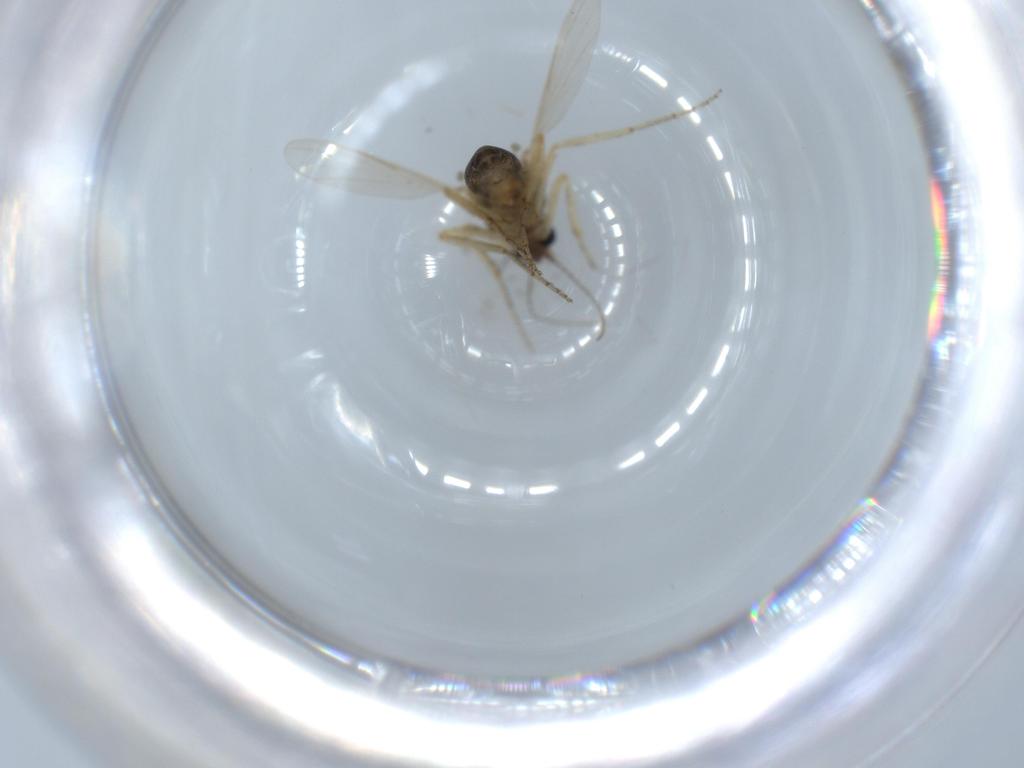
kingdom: Animalia
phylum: Arthropoda
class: Insecta
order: Diptera
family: Ceratopogonidae
